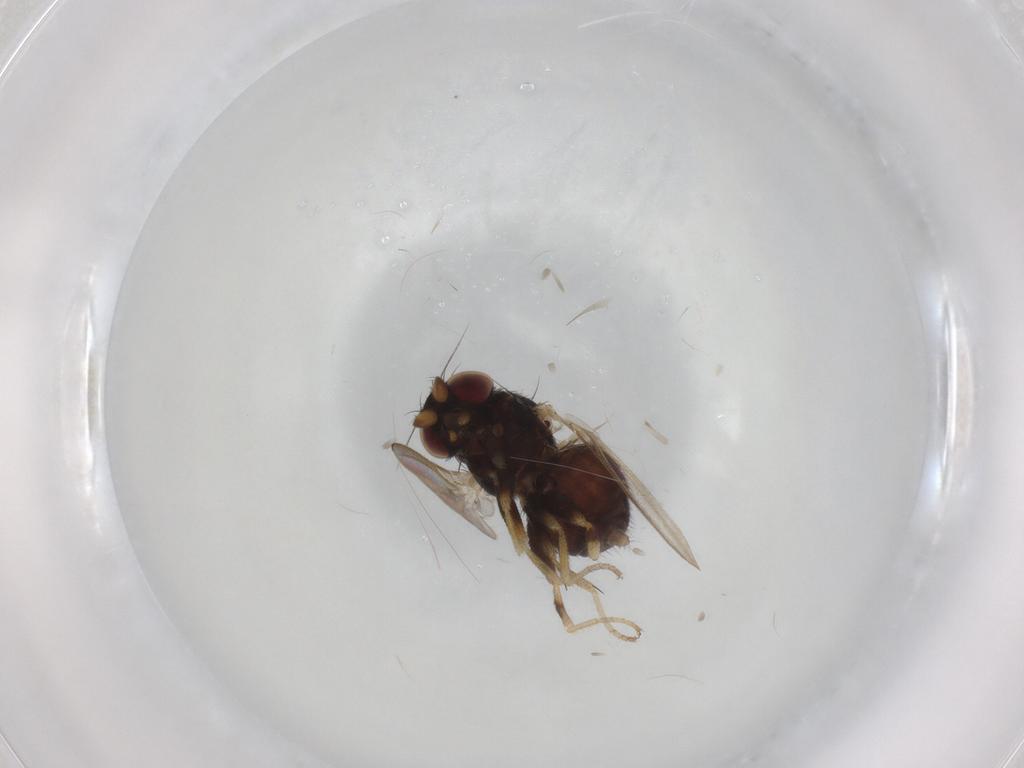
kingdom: Animalia
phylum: Arthropoda
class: Insecta
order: Diptera
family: Milichiidae
